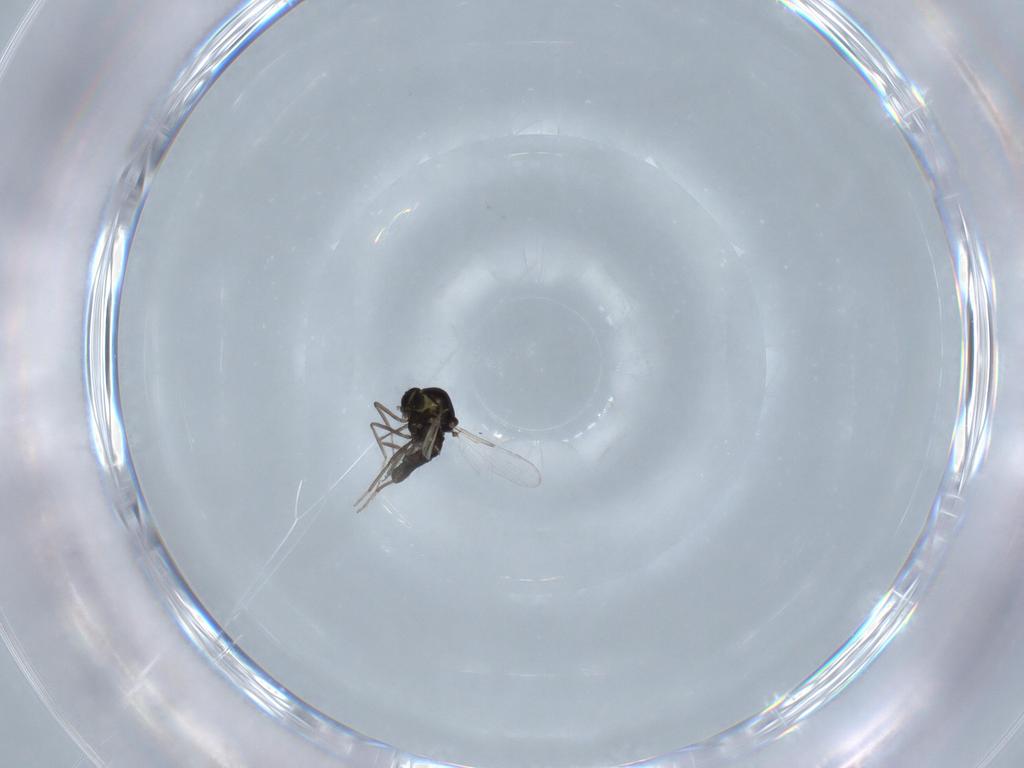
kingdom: Animalia
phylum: Arthropoda
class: Insecta
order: Diptera
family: Ceratopogonidae
